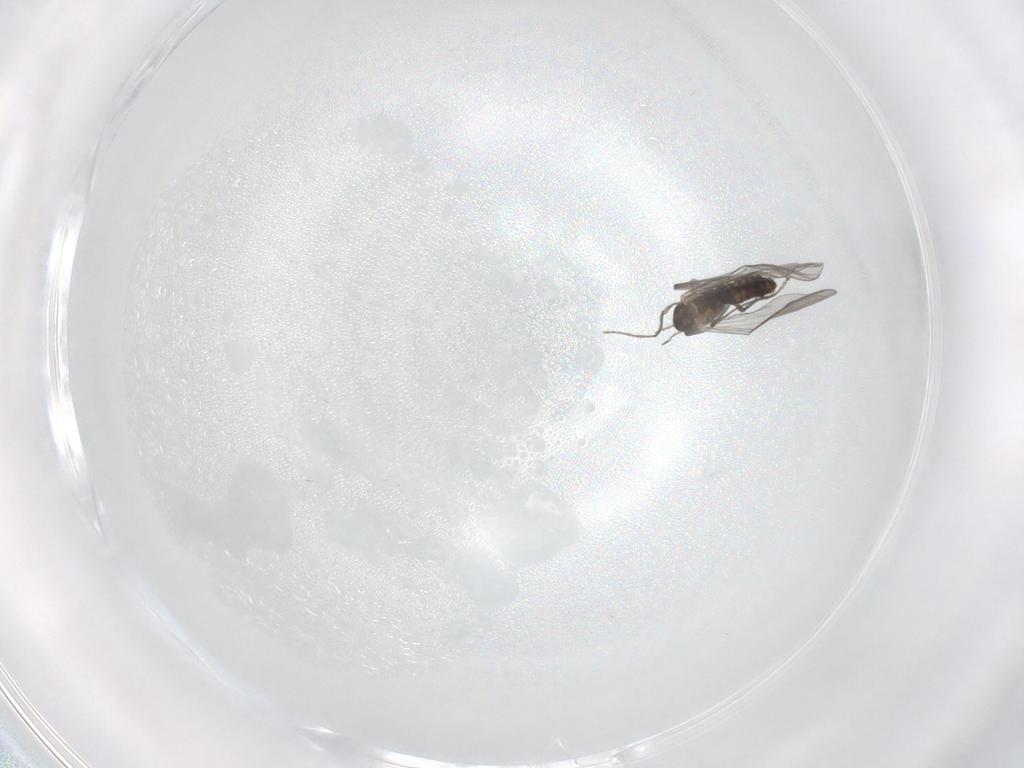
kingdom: Animalia
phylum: Arthropoda
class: Insecta
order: Diptera
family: Chironomidae
